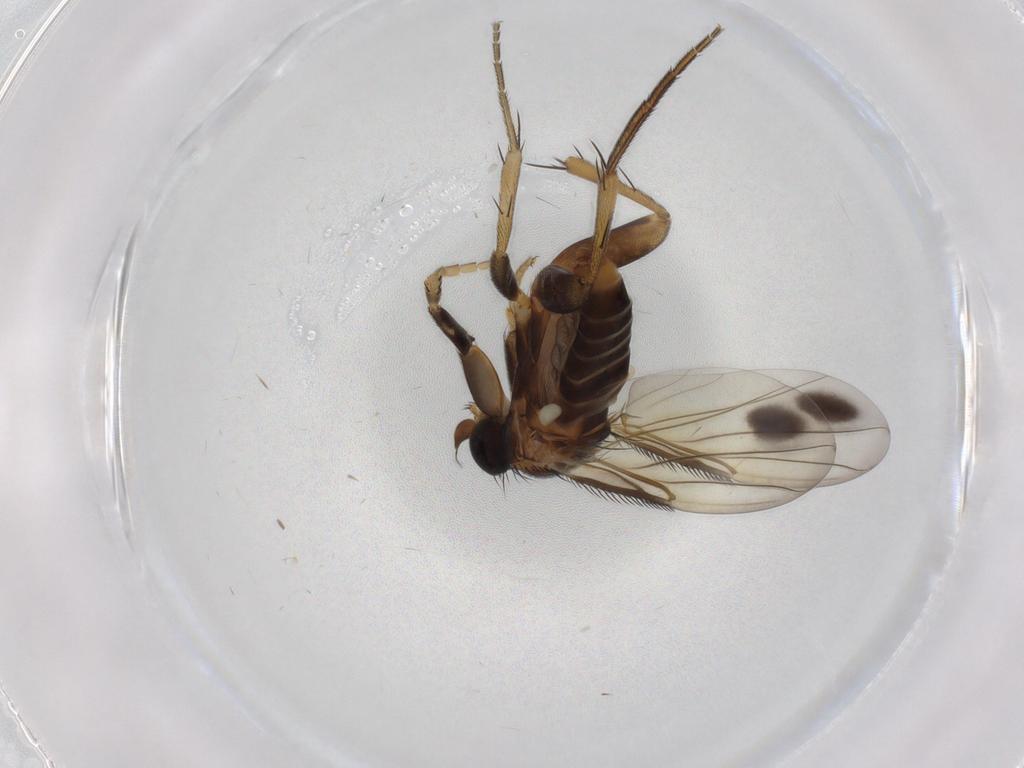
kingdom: Animalia
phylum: Arthropoda
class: Insecta
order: Diptera
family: Phoridae
